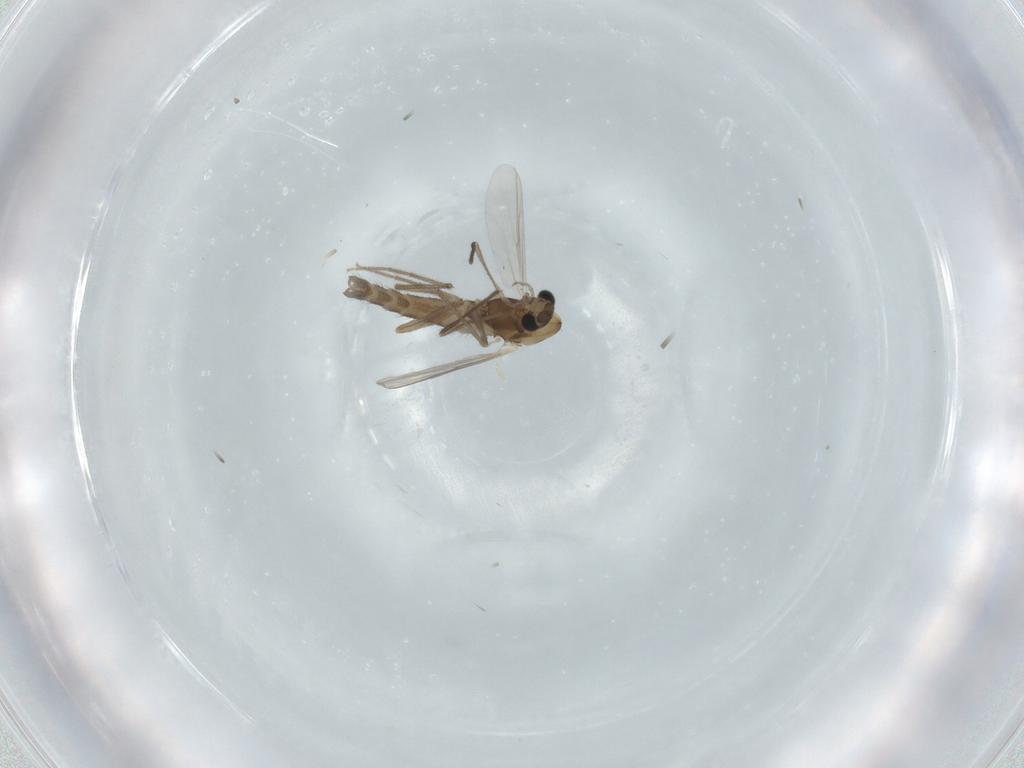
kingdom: Animalia
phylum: Arthropoda
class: Insecta
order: Diptera
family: Chironomidae
